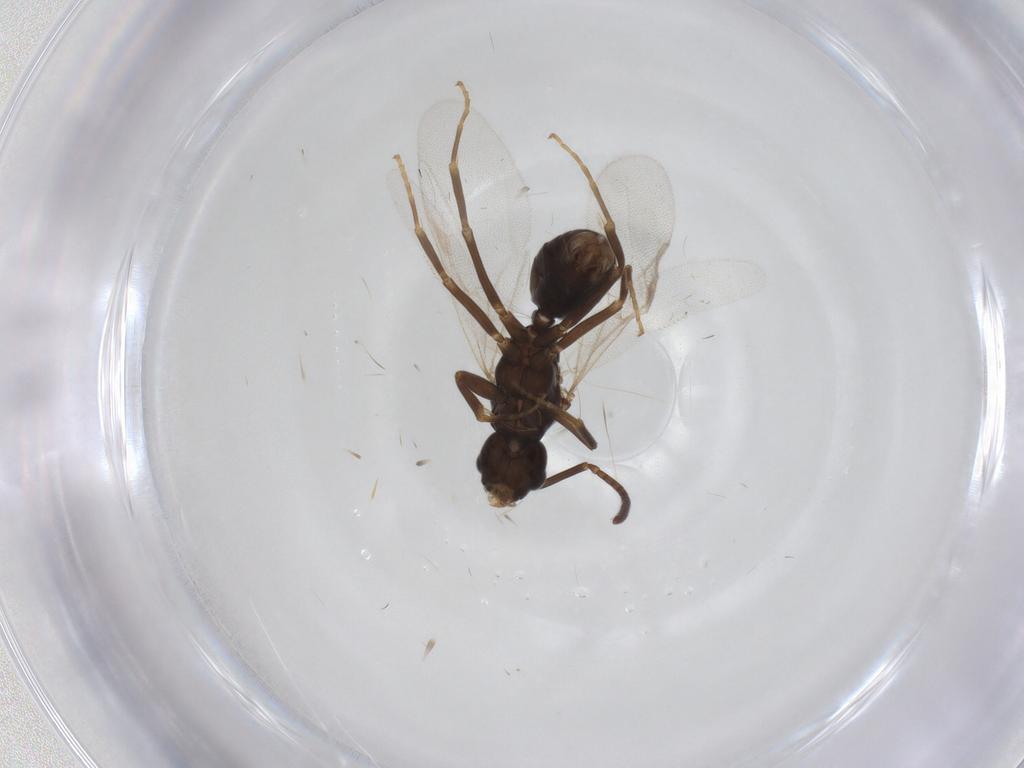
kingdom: Animalia
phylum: Arthropoda
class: Insecta
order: Hymenoptera
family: Formicidae
